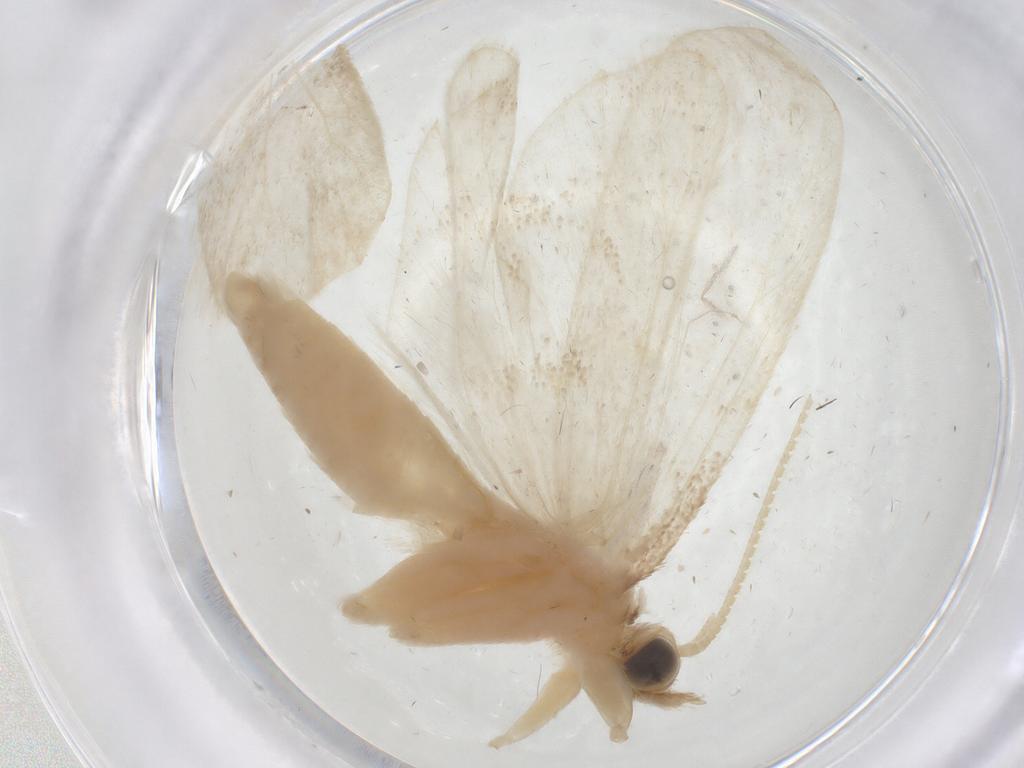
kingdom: Animalia
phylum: Arthropoda
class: Insecta
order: Lepidoptera
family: Crambidae
